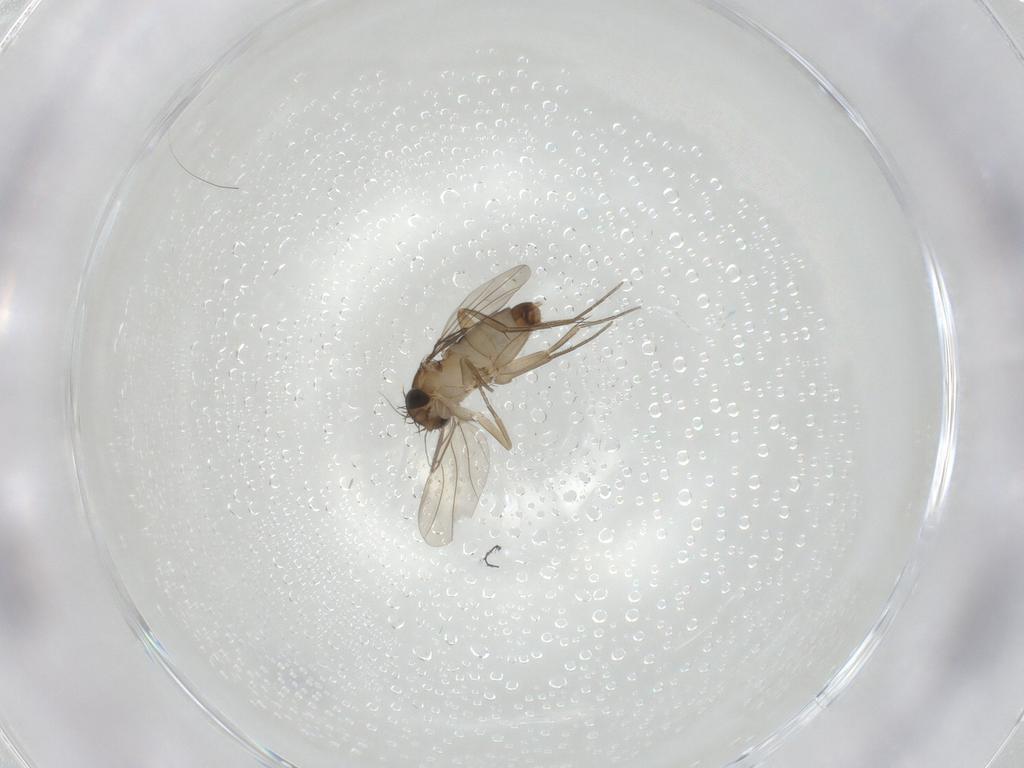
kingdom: Animalia
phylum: Arthropoda
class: Insecta
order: Diptera
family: Phoridae
